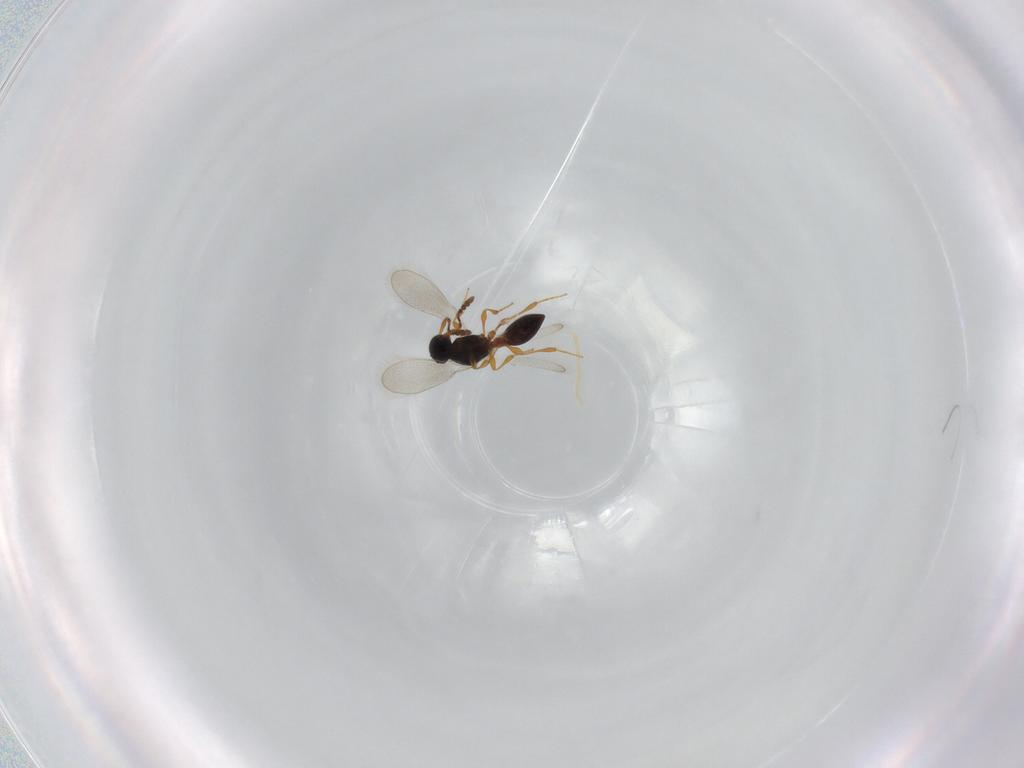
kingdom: Animalia
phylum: Arthropoda
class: Insecta
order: Hymenoptera
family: Platygastridae
